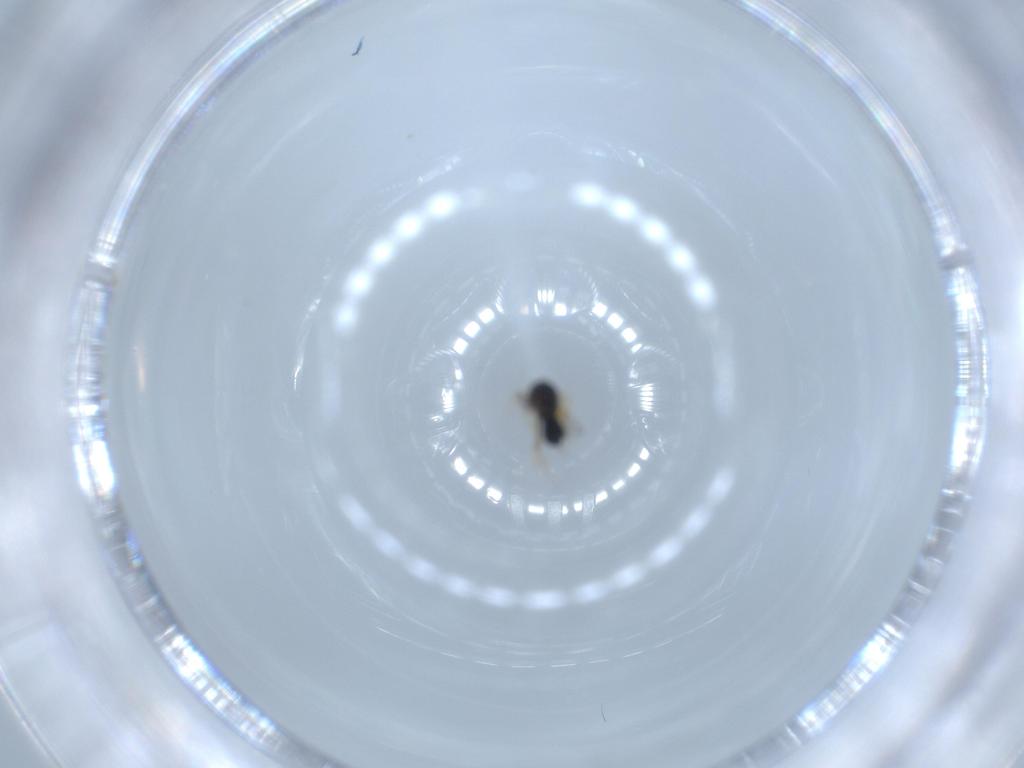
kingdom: Animalia
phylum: Arthropoda
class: Insecta
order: Hymenoptera
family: Scelionidae
